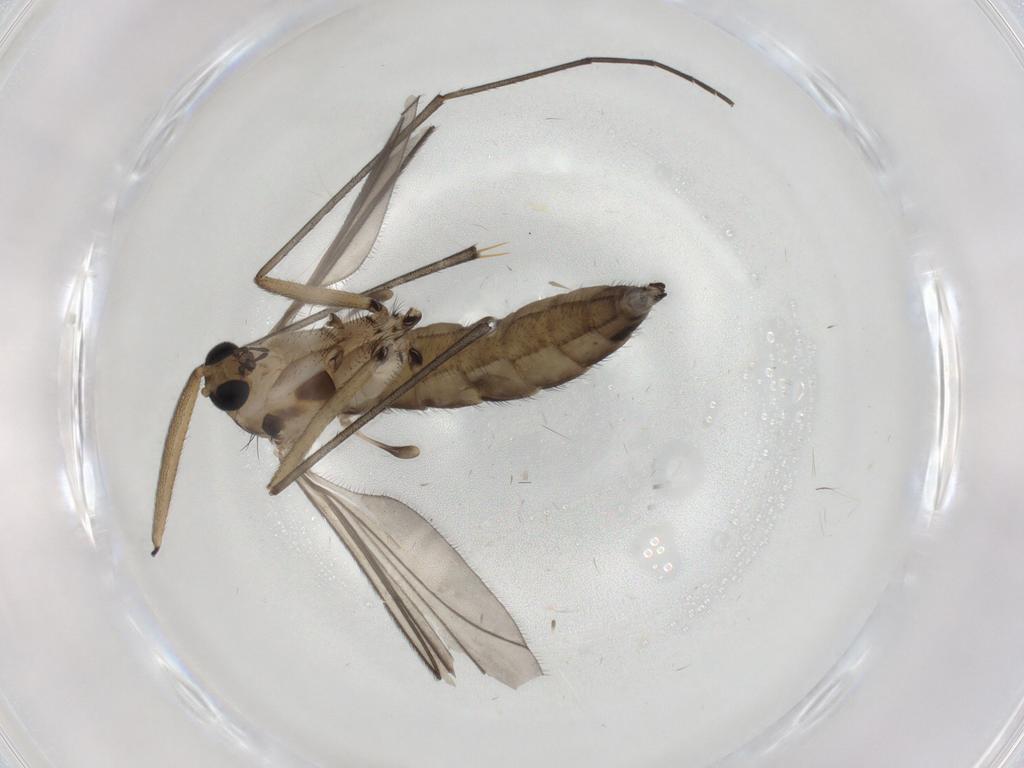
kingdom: Animalia
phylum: Arthropoda
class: Insecta
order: Diptera
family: Sciaridae
